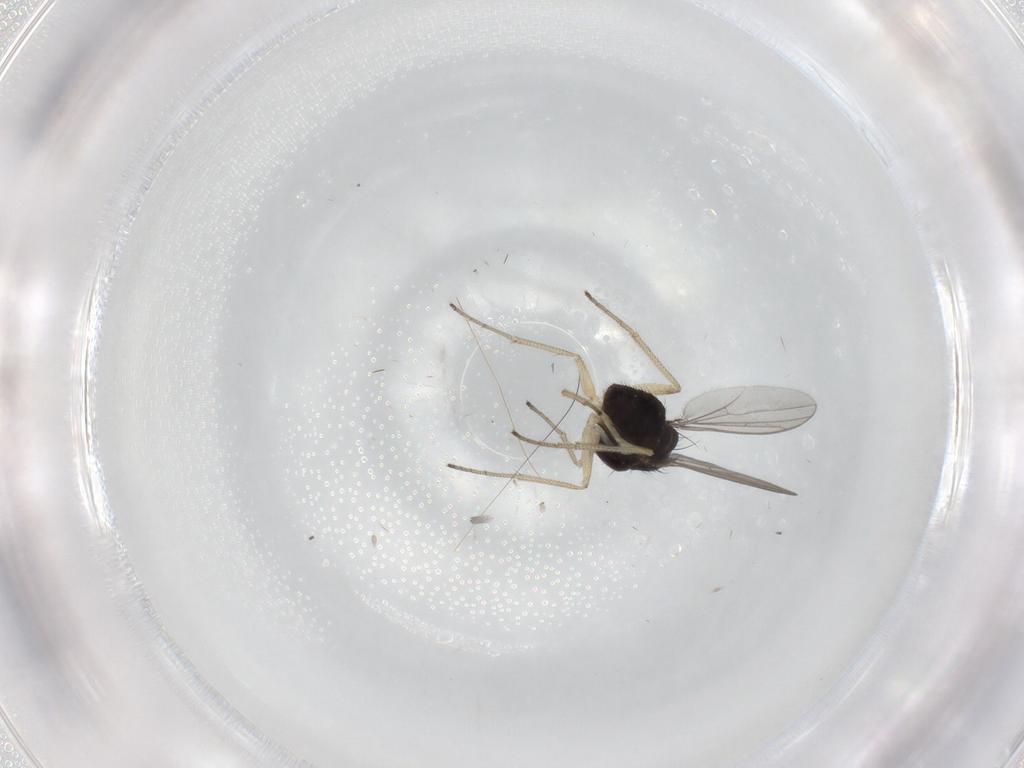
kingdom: Animalia
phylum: Arthropoda
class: Insecta
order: Diptera
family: Dolichopodidae
